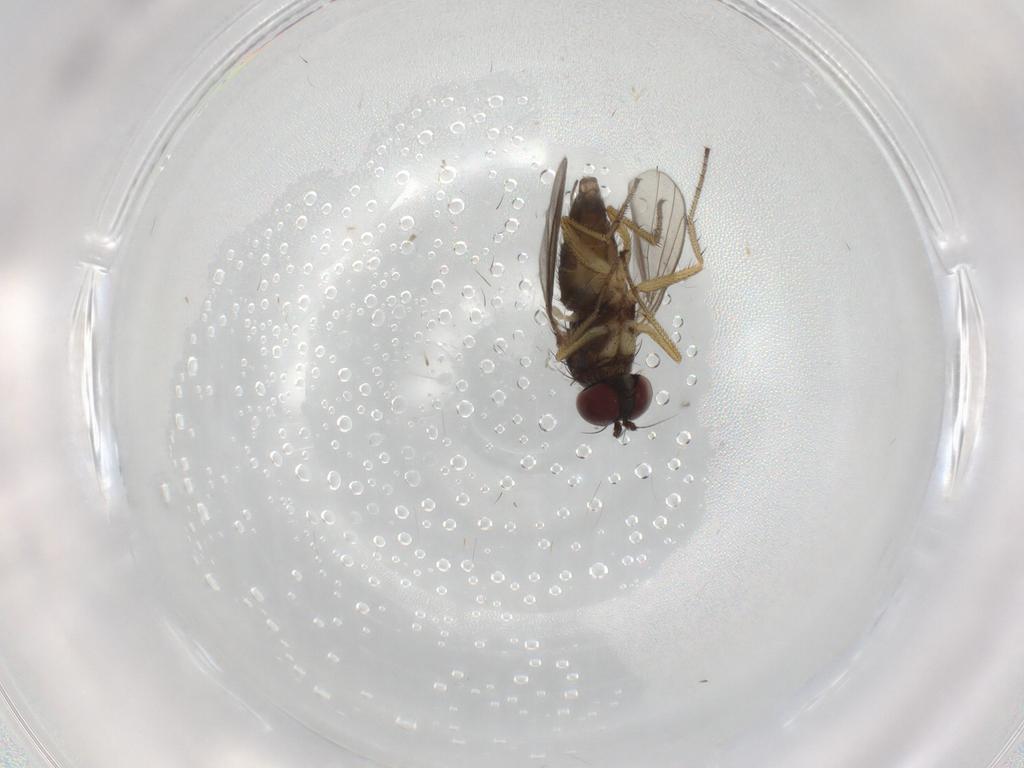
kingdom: Animalia
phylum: Arthropoda
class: Insecta
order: Diptera
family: Dolichopodidae
